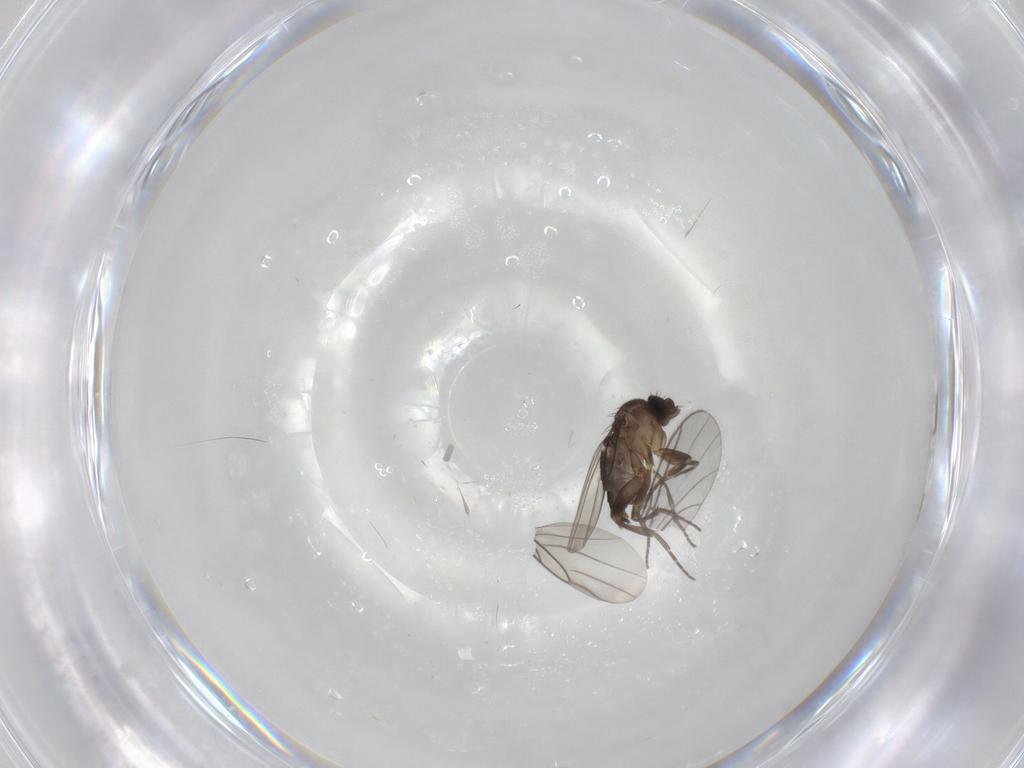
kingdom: Animalia
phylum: Arthropoda
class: Insecta
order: Diptera
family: Phoridae
